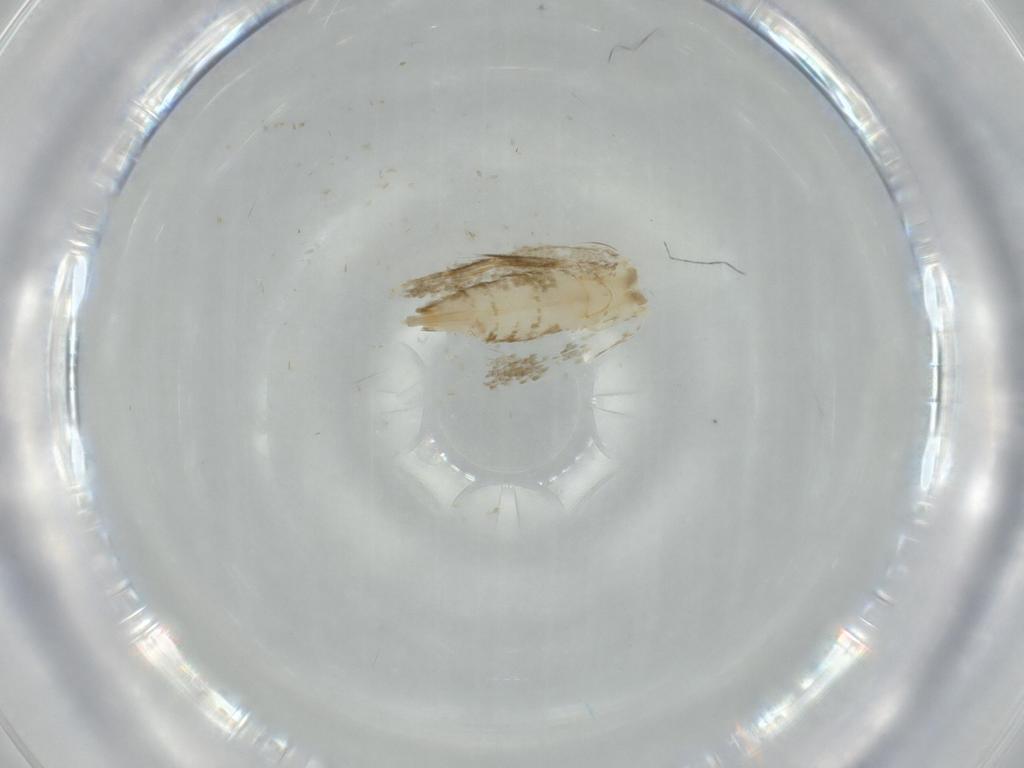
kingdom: Animalia
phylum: Arthropoda
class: Insecta
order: Lepidoptera
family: Tineidae
